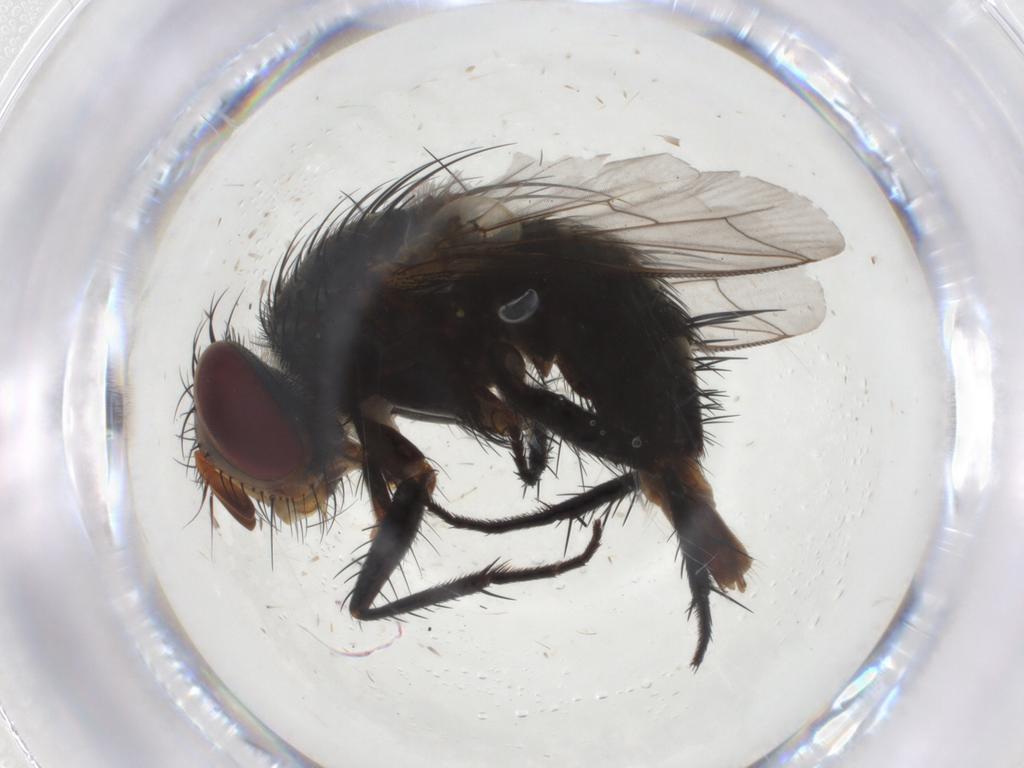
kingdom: Animalia
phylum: Arthropoda
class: Insecta
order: Diptera
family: Tachinidae
